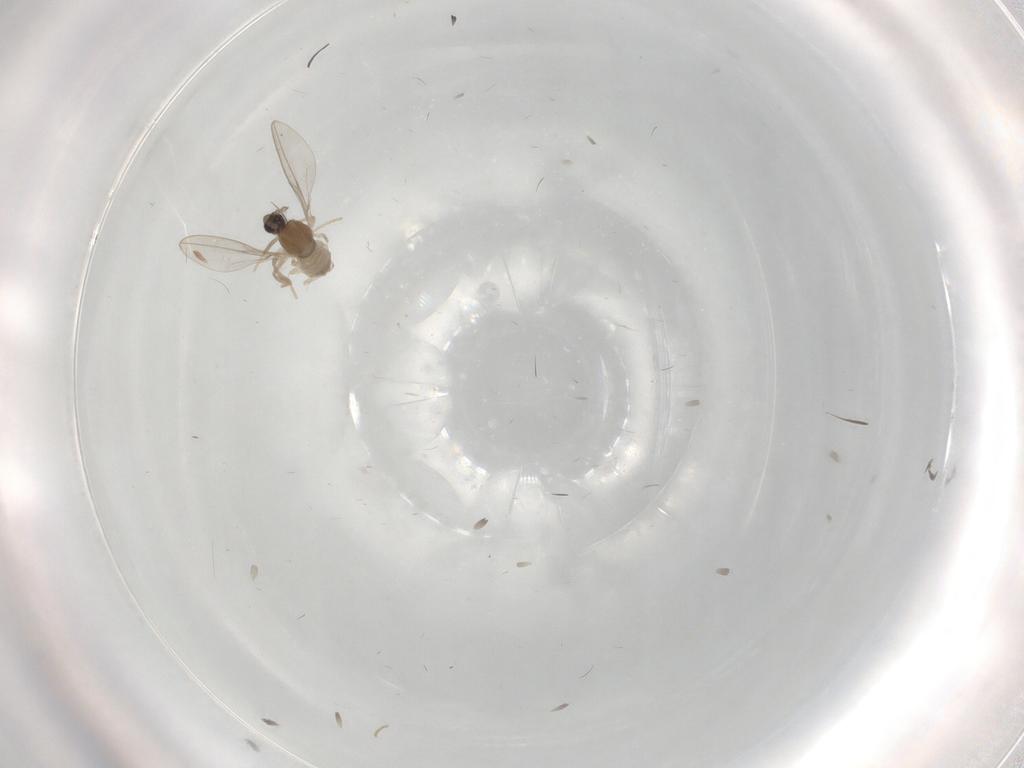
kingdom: Animalia
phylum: Arthropoda
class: Insecta
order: Diptera
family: Cecidomyiidae
